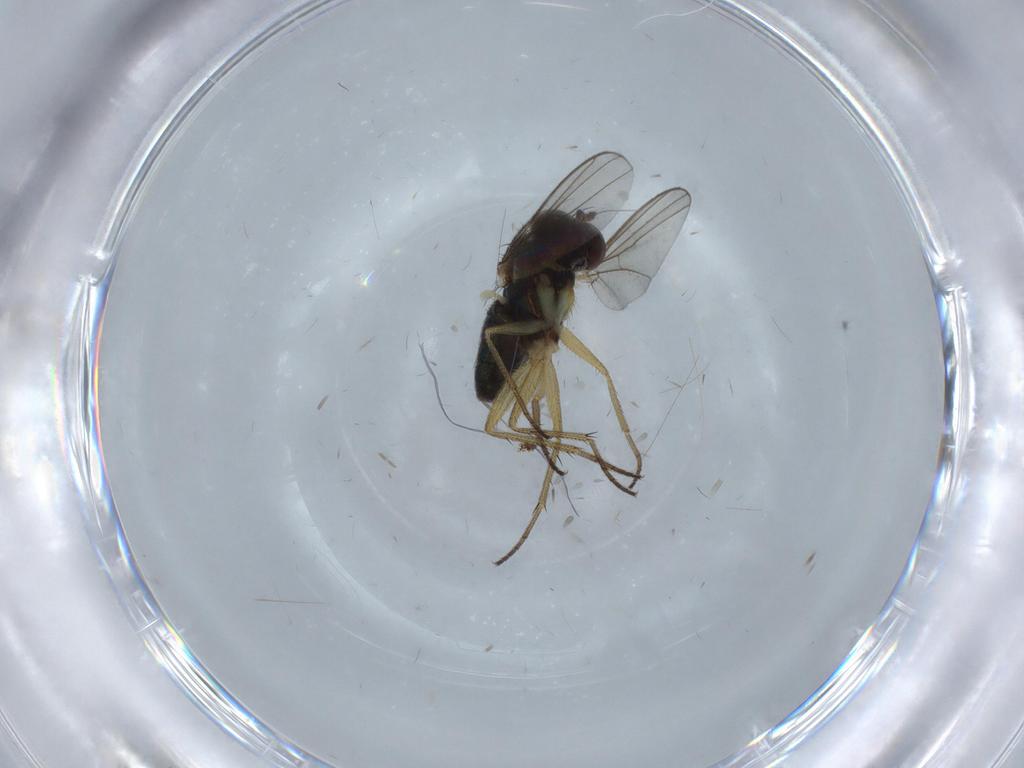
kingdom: Animalia
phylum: Arthropoda
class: Insecta
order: Diptera
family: Dolichopodidae
